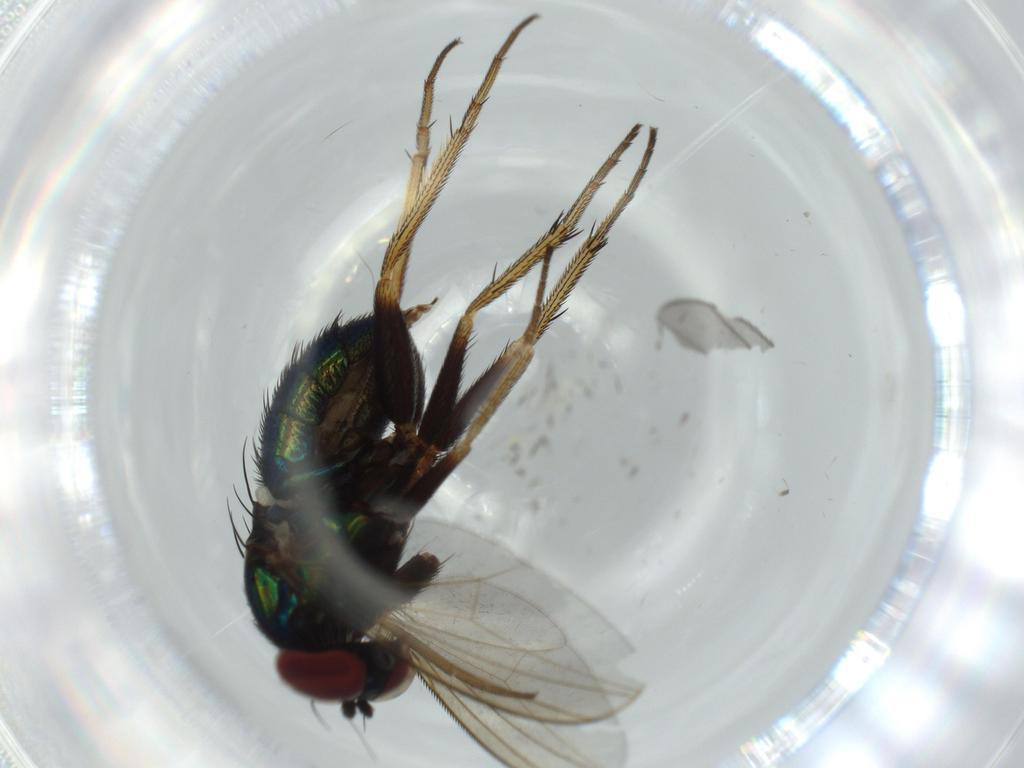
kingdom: Animalia
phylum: Arthropoda
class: Insecta
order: Diptera
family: Dolichopodidae
